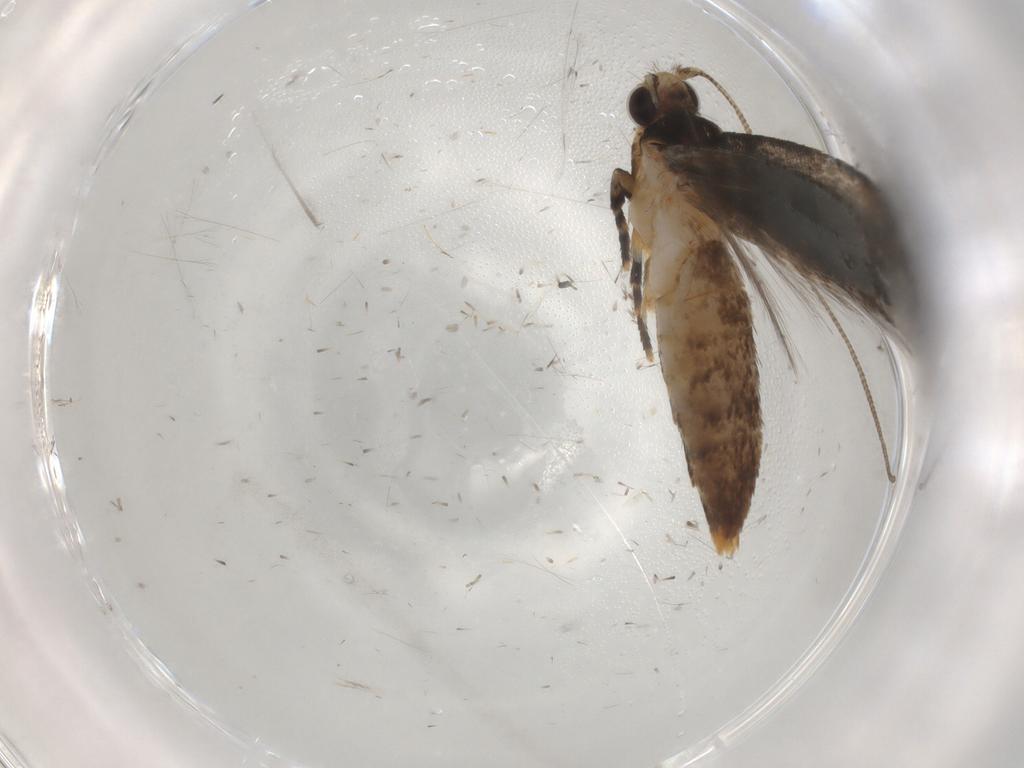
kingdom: Animalia
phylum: Arthropoda
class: Insecta
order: Lepidoptera
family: Tineidae
